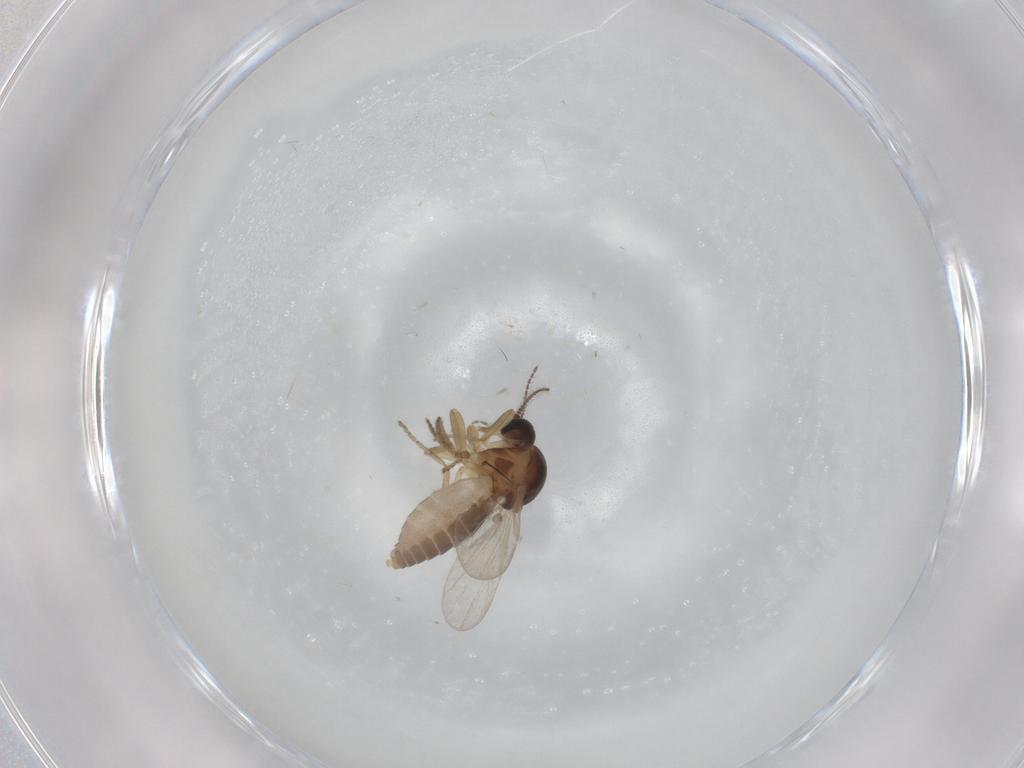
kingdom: Animalia
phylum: Arthropoda
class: Insecta
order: Diptera
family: Ceratopogonidae
